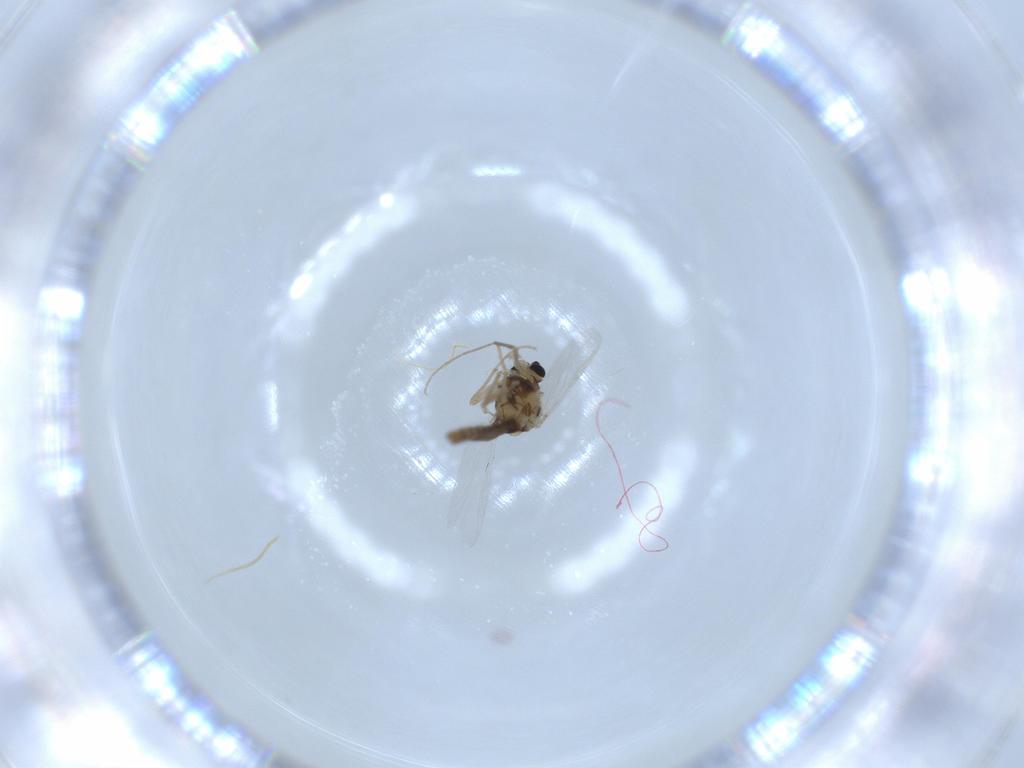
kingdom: Animalia
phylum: Arthropoda
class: Insecta
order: Diptera
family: Chironomidae
